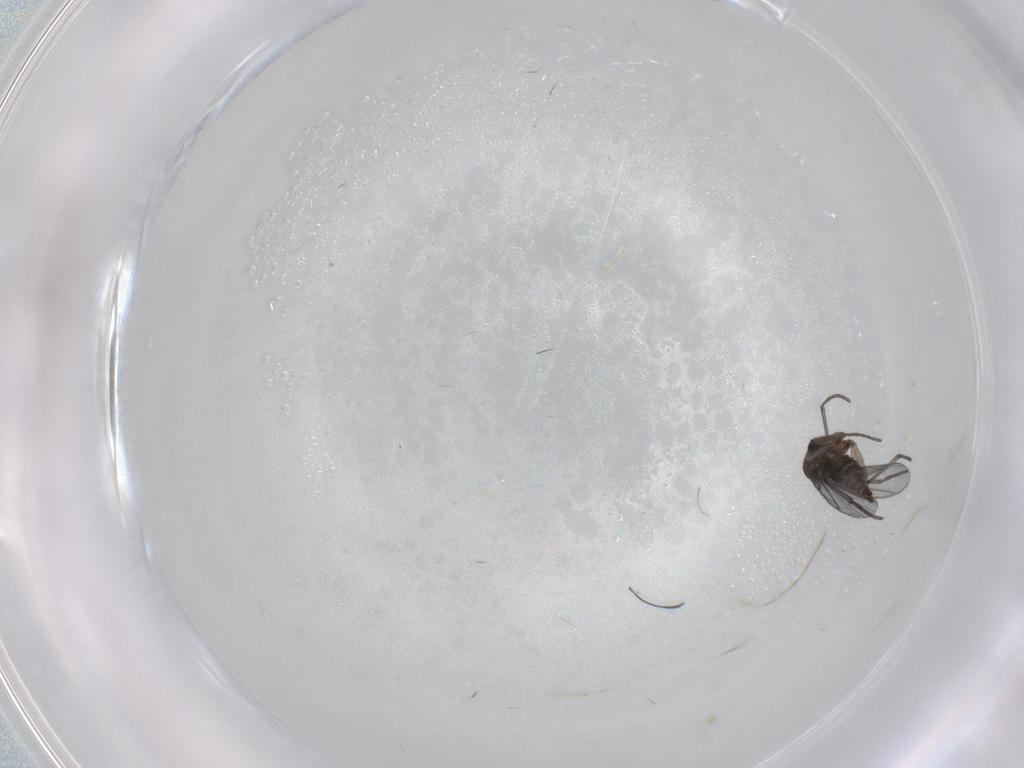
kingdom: Animalia
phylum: Arthropoda
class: Insecta
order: Diptera
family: Sciaridae
